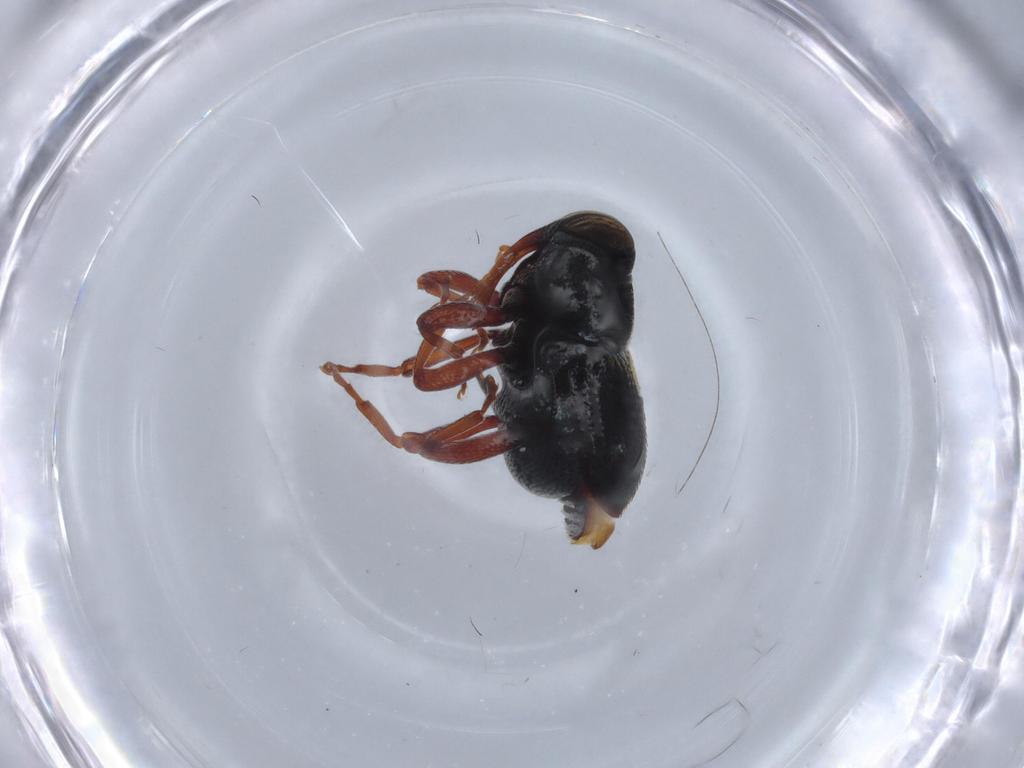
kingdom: Animalia
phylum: Arthropoda
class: Insecta
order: Coleoptera
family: Curculionidae
